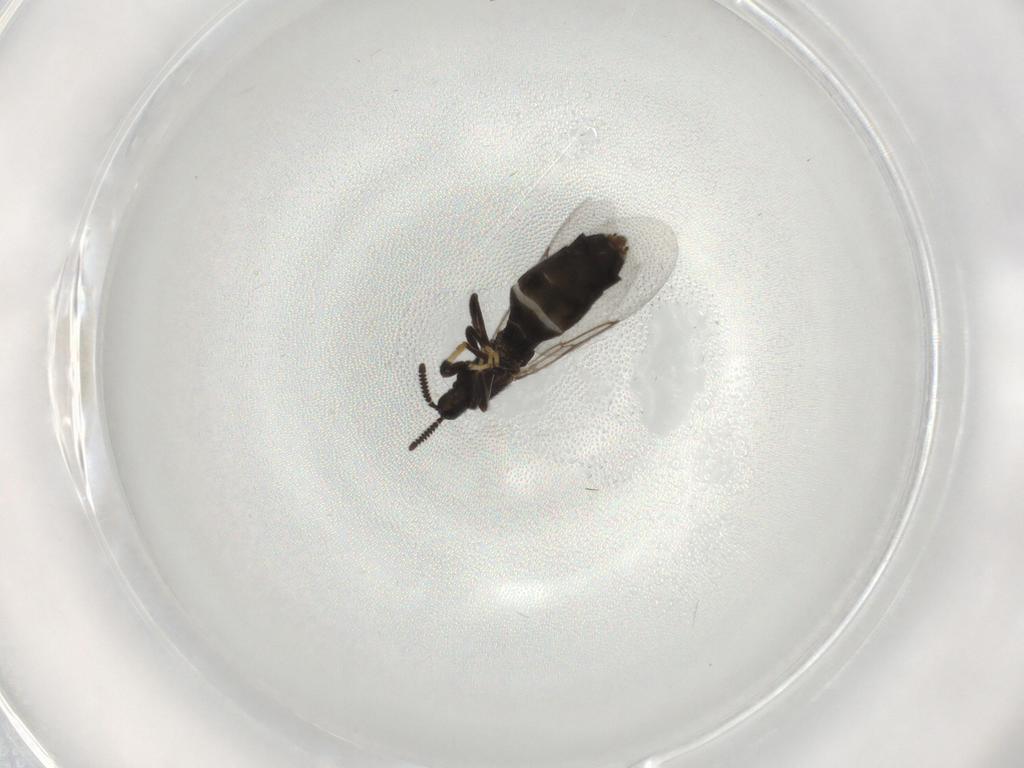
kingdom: Animalia
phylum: Arthropoda
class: Insecta
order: Diptera
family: Scatopsidae
